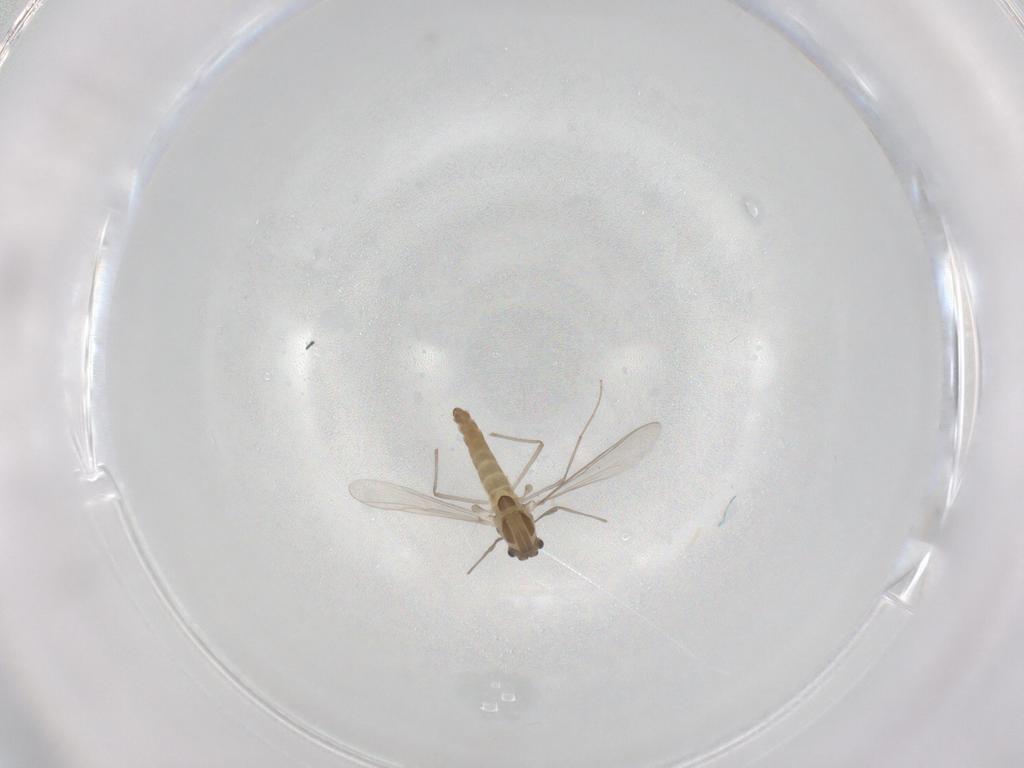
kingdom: Animalia
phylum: Arthropoda
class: Insecta
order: Diptera
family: Chironomidae
